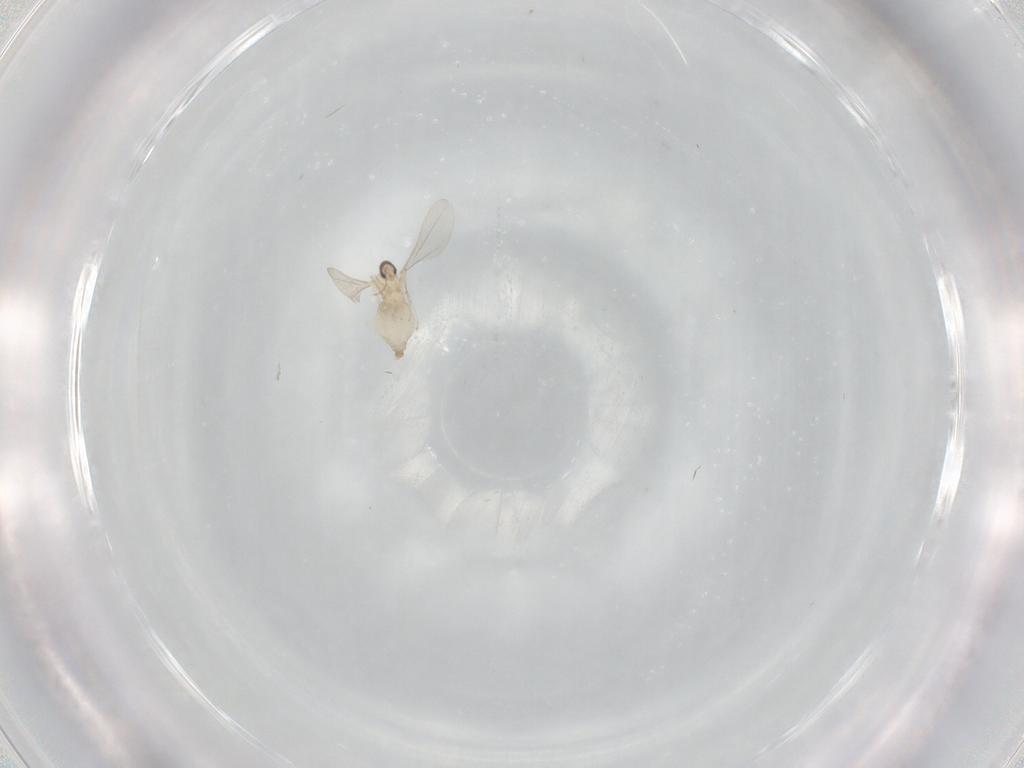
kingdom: Animalia
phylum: Arthropoda
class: Insecta
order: Diptera
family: Cecidomyiidae
